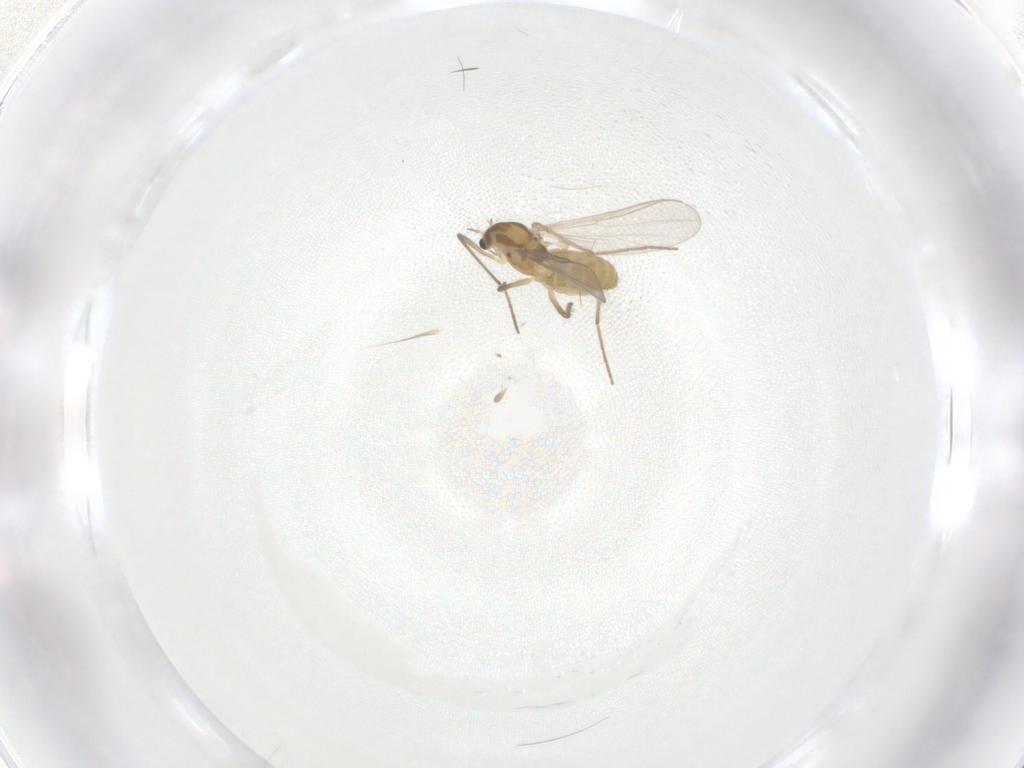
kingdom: Animalia
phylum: Arthropoda
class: Insecta
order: Diptera
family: Chironomidae
